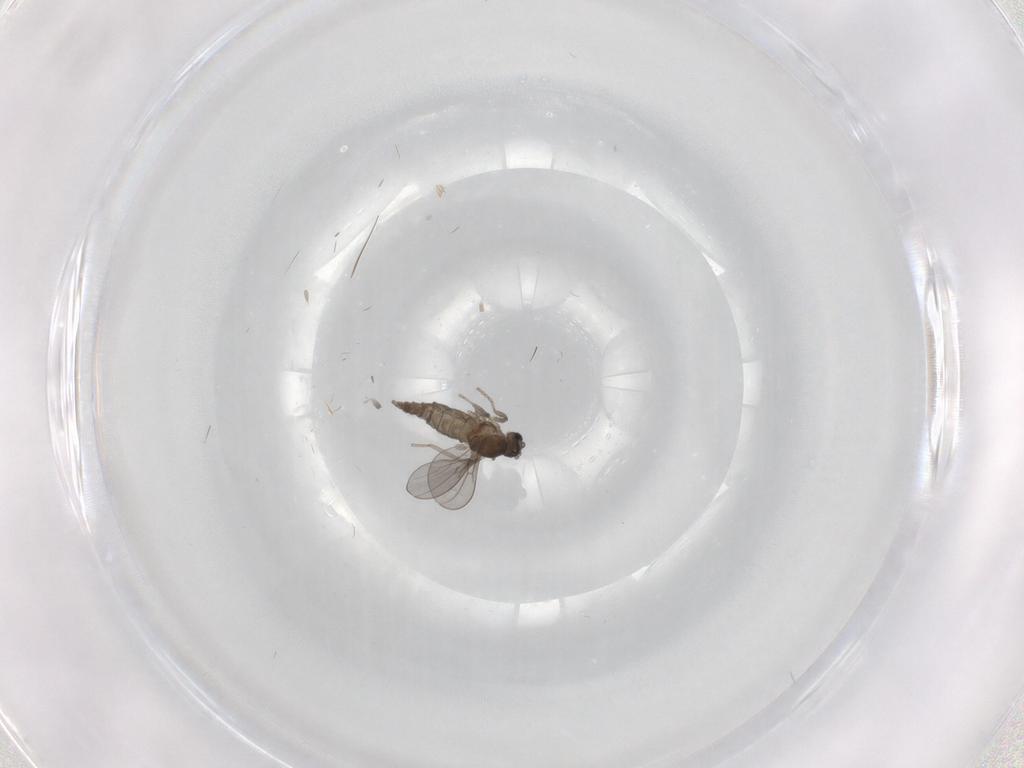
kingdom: Animalia
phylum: Arthropoda
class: Insecta
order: Diptera
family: Cecidomyiidae
